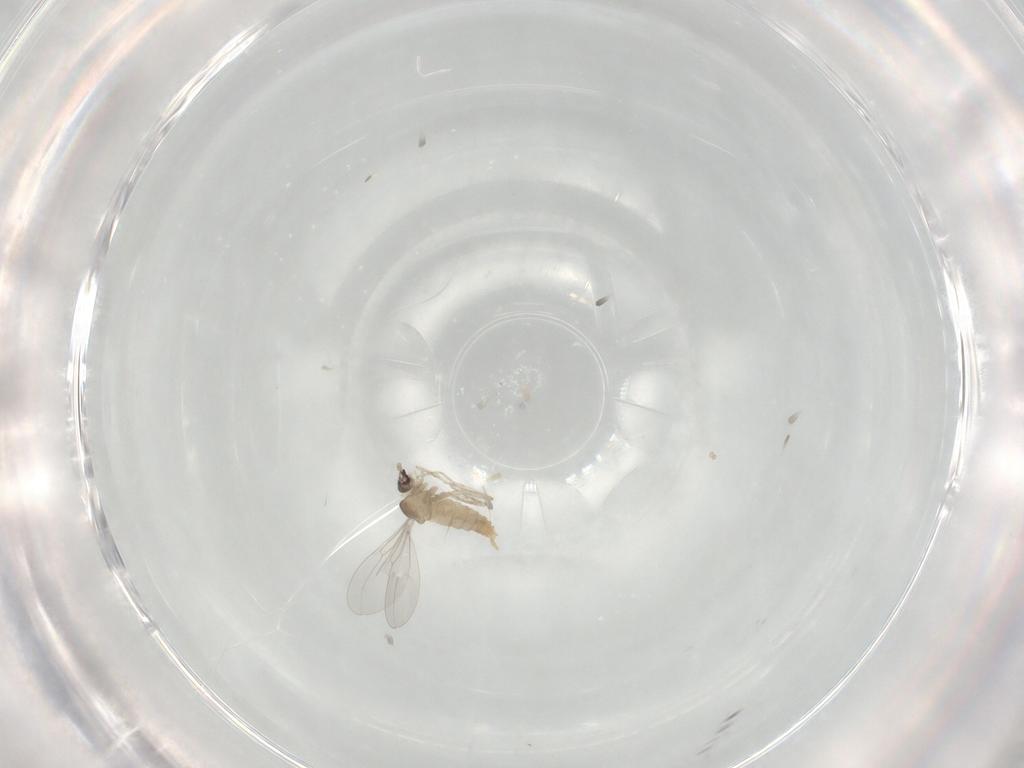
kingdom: Animalia
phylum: Arthropoda
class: Insecta
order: Diptera
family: Cecidomyiidae
